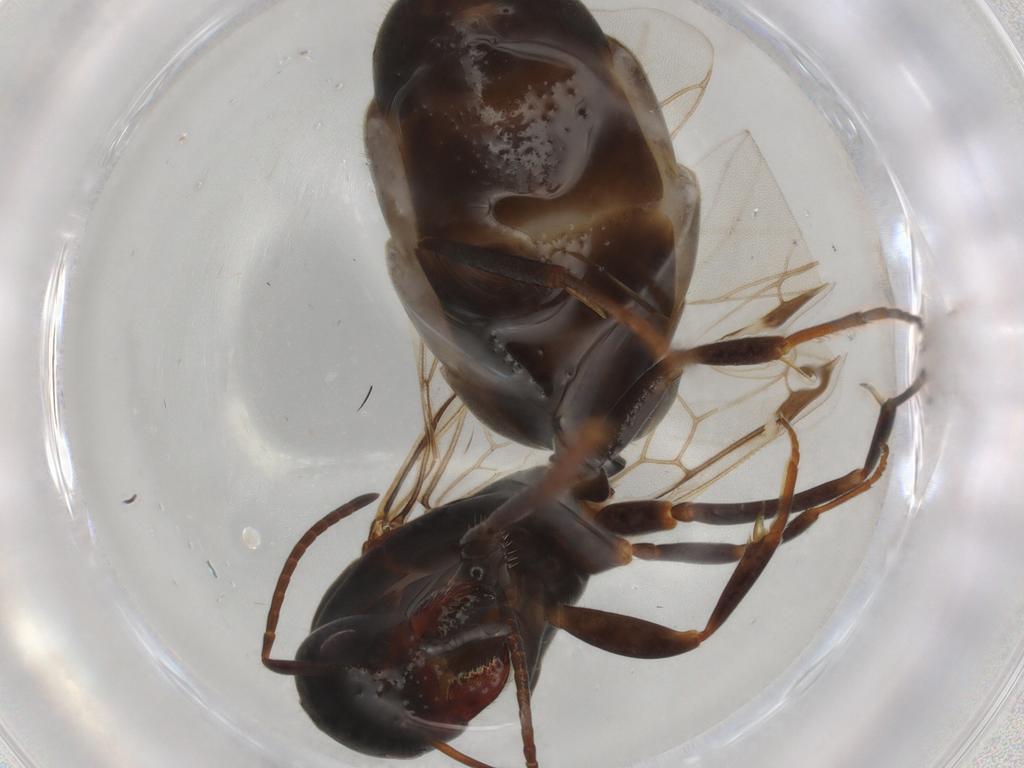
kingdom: Animalia
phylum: Arthropoda
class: Insecta
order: Hymenoptera
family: Formicidae
